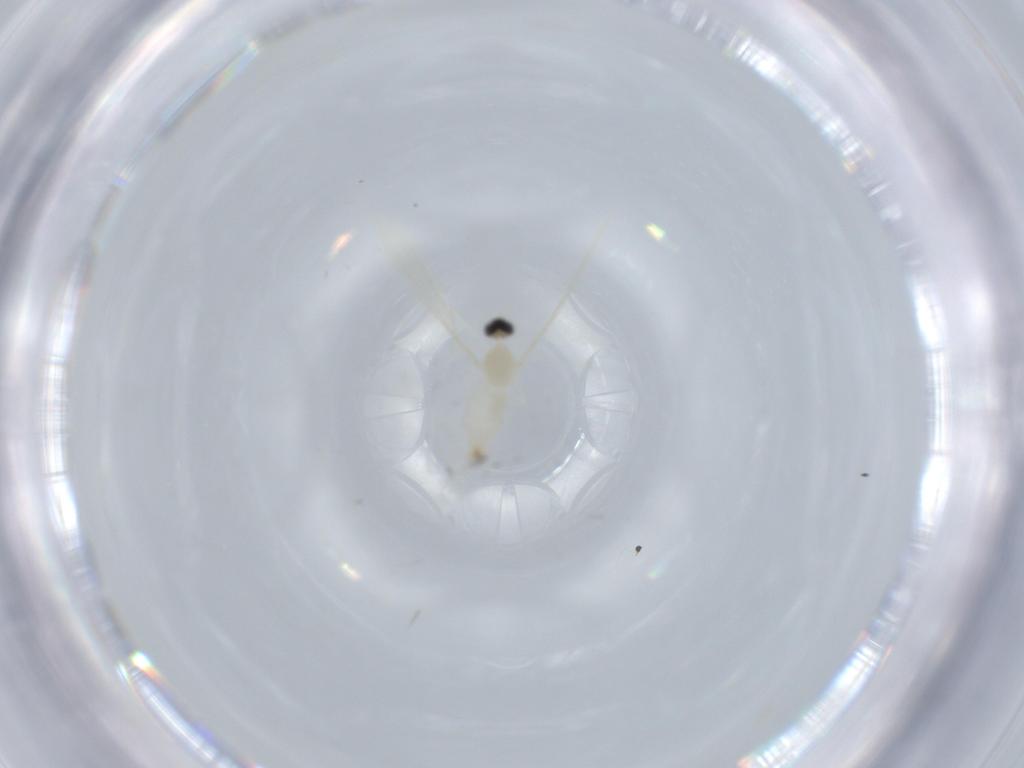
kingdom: Animalia
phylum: Arthropoda
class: Insecta
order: Diptera
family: Cecidomyiidae
